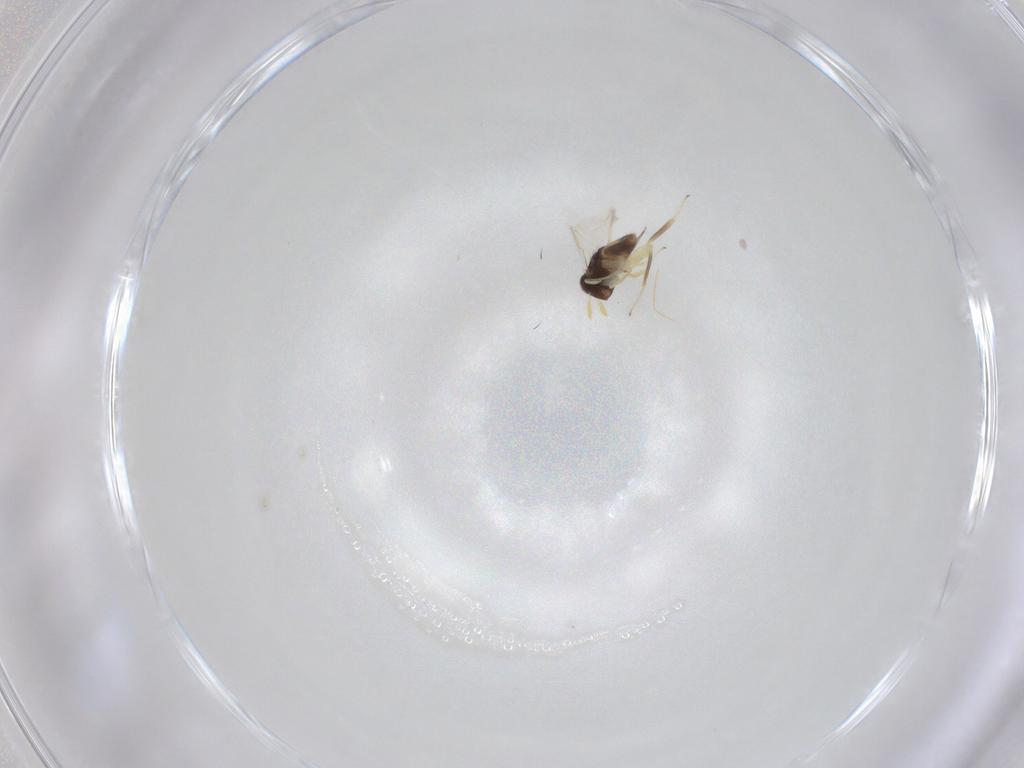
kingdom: Animalia
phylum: Arthropoda
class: Insecta
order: Hymenoptera
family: Aphelinidae
